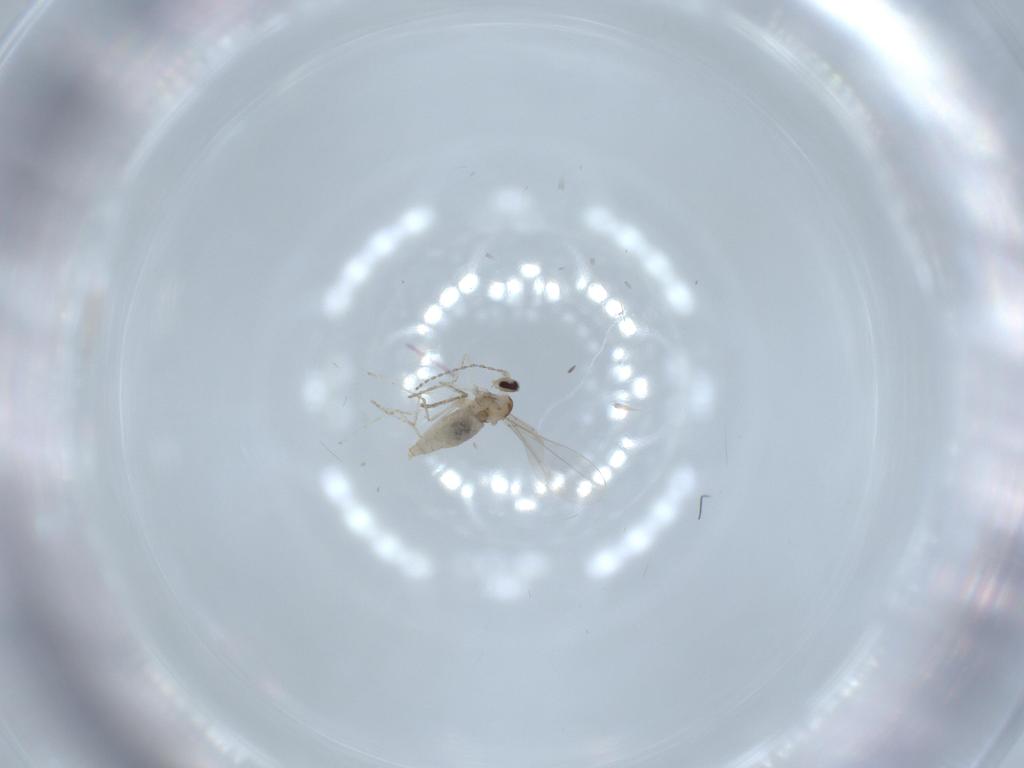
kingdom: Animalia
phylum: Arthropoda
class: Insecta
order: Diptera
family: Cecidomyiidae
